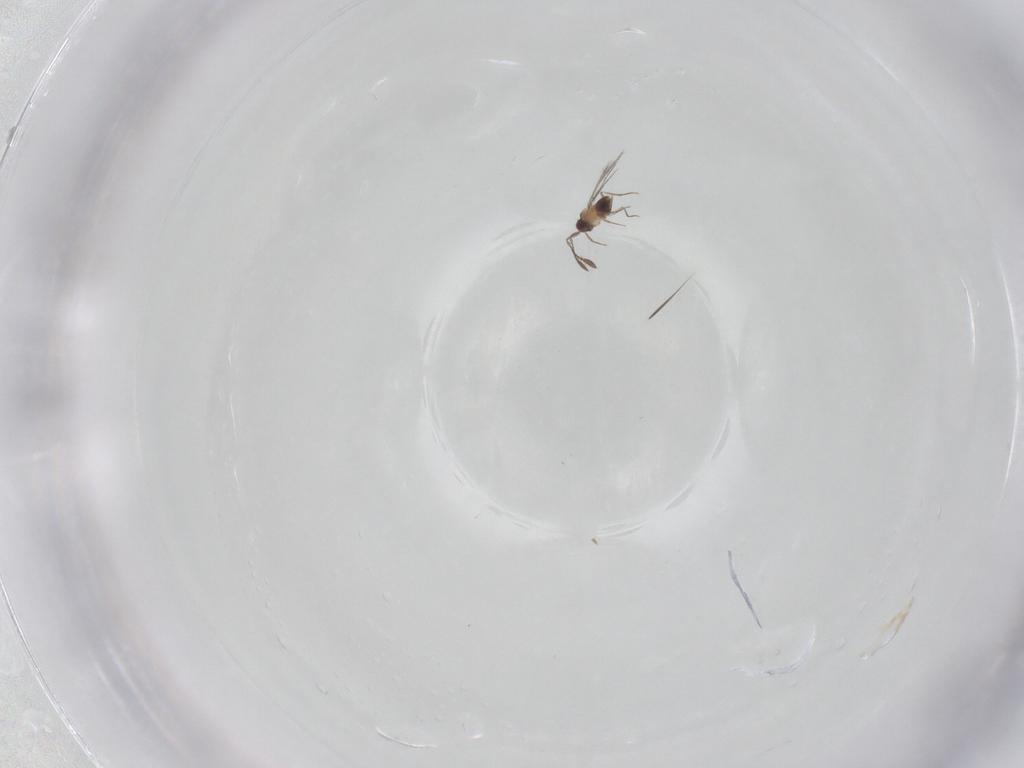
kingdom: Animalia
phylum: Arthropoda
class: Insecta
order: Hymenoptera
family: Mymaridae
